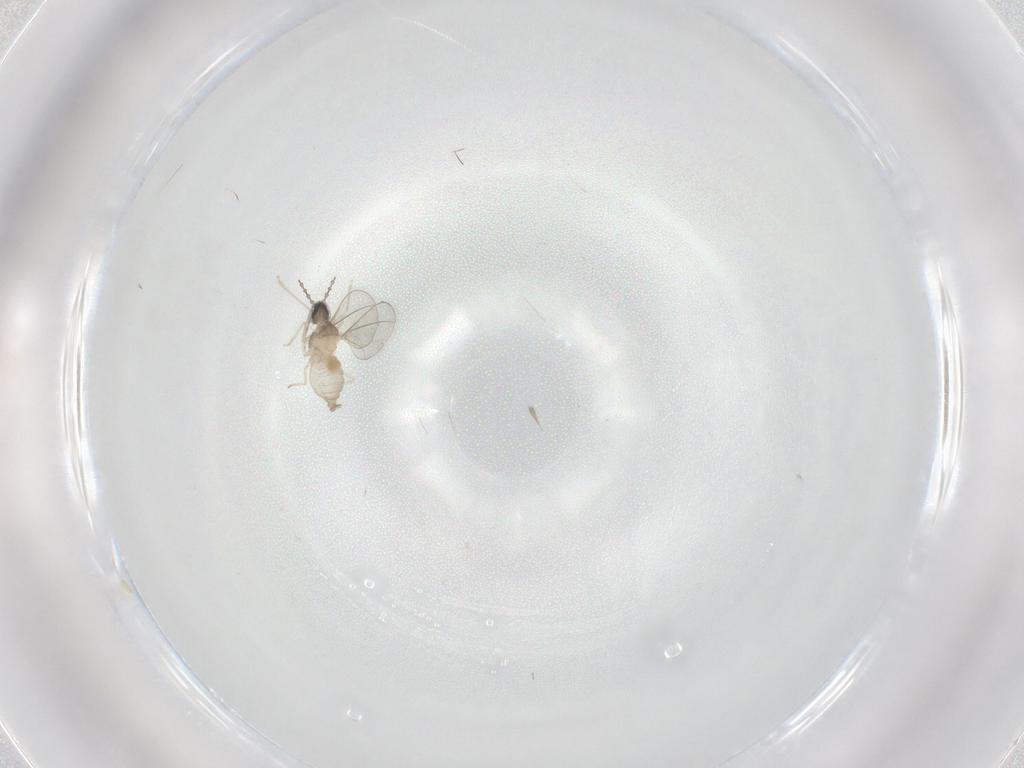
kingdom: Animalia
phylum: Arthropoda
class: Insecta
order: Diptera
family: Cecidomyiidae
